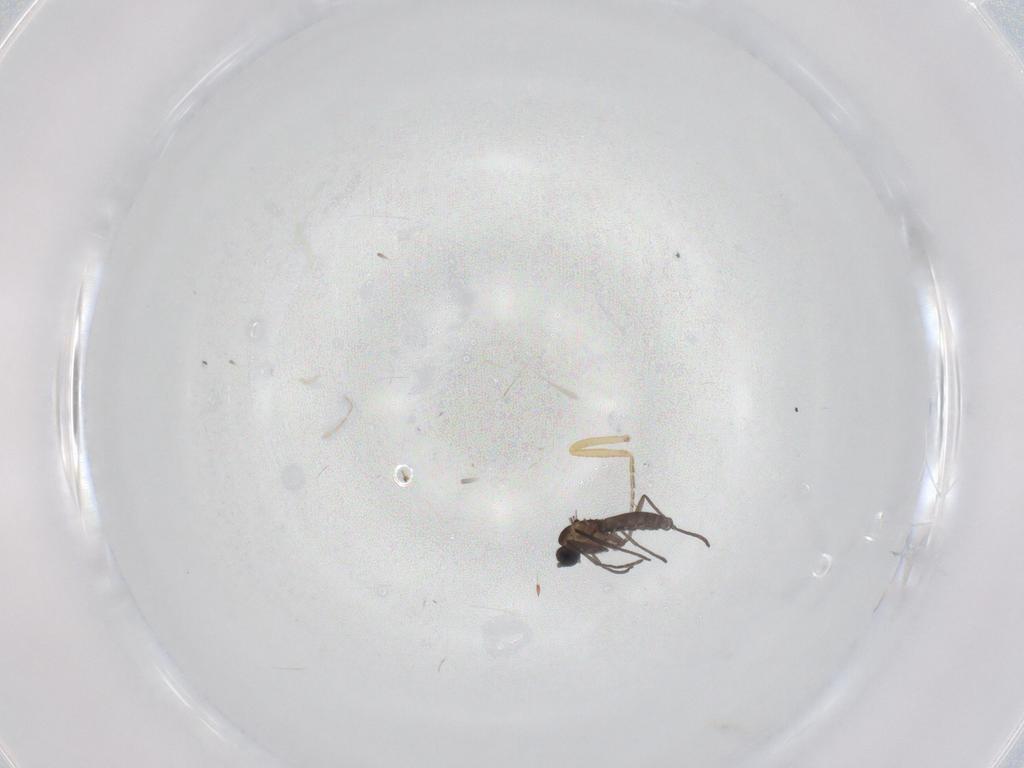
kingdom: Animalia
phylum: Arthropoda
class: Insecta
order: Diptera
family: Ceratopogonidae
